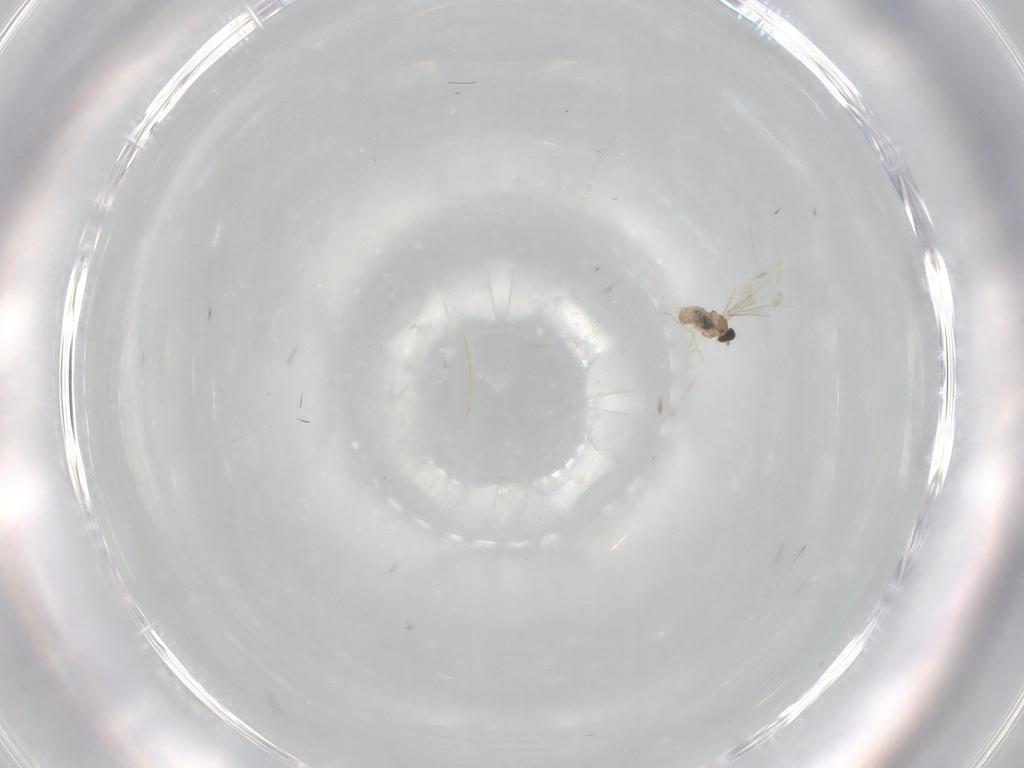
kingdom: Animalia
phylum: Arthropoda
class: Insecta
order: Diptera
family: Cecidomyiidae
